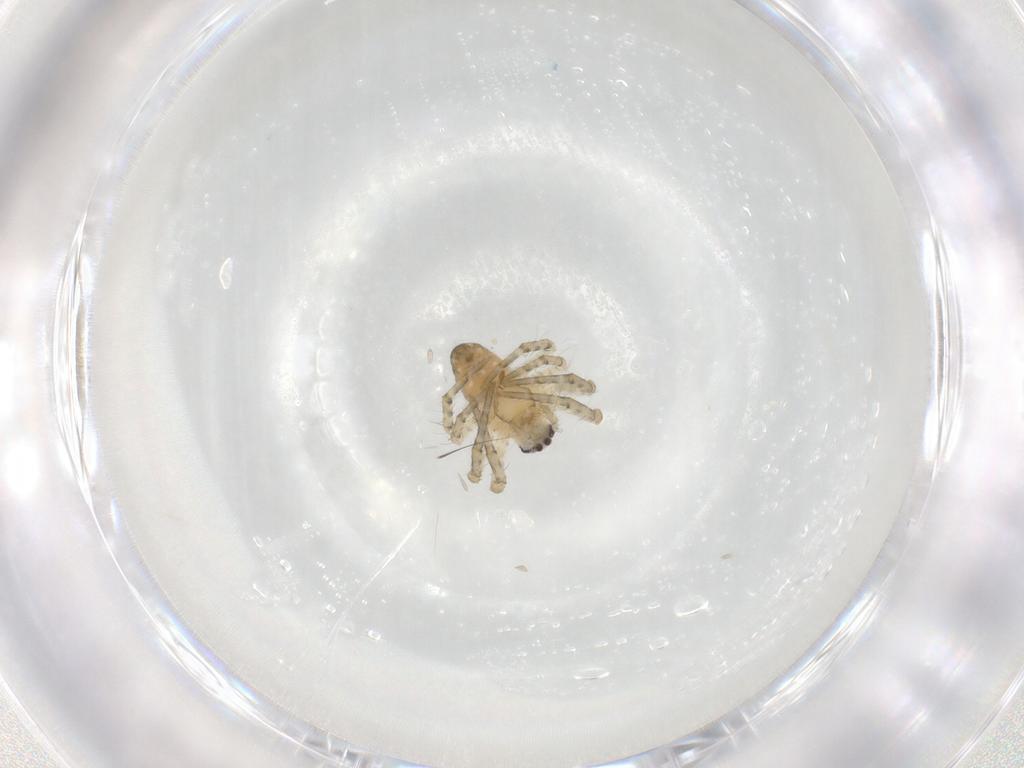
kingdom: Animalia
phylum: Arthropoda
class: Arachnida
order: Araneae
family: Araneidae
